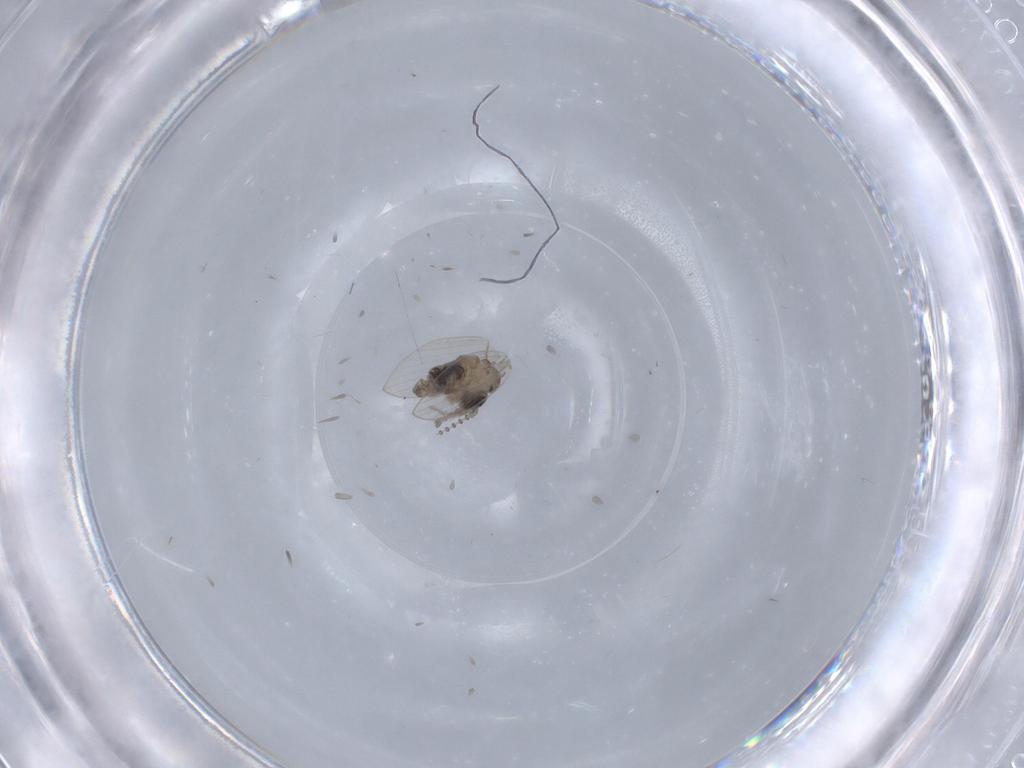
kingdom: Animalia
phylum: Arthropoda
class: Insecta
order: Diptera
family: Psychodidae
